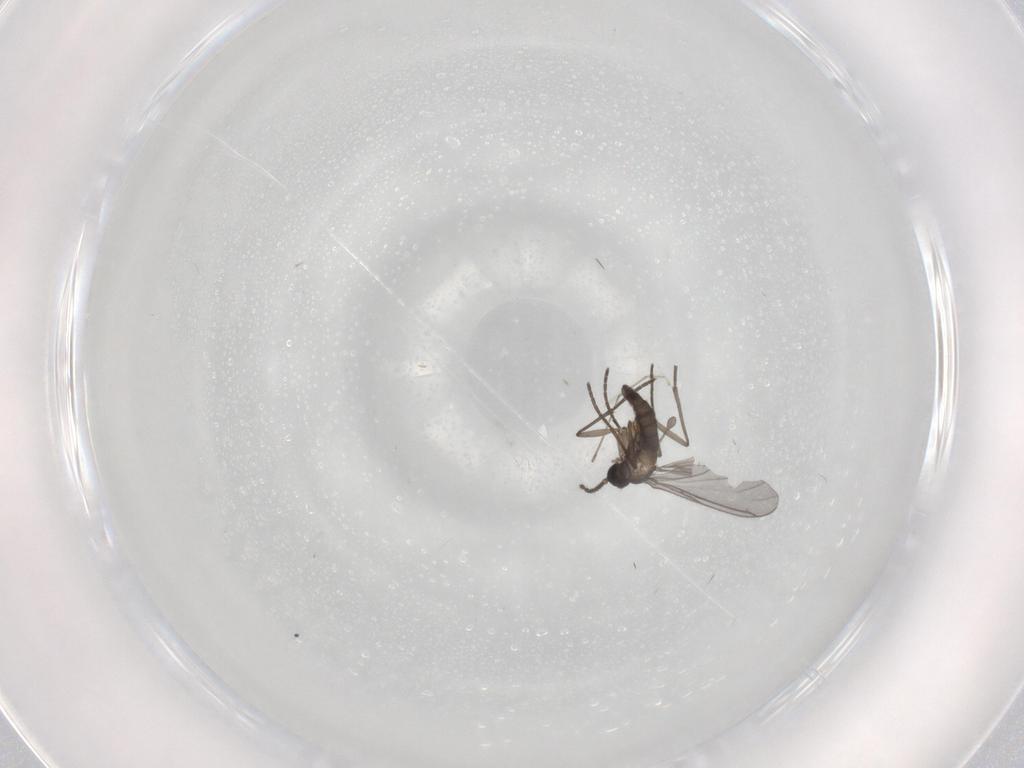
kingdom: Animalia
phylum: Arthropoda
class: Insecta
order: Diptera
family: Sciaridae
